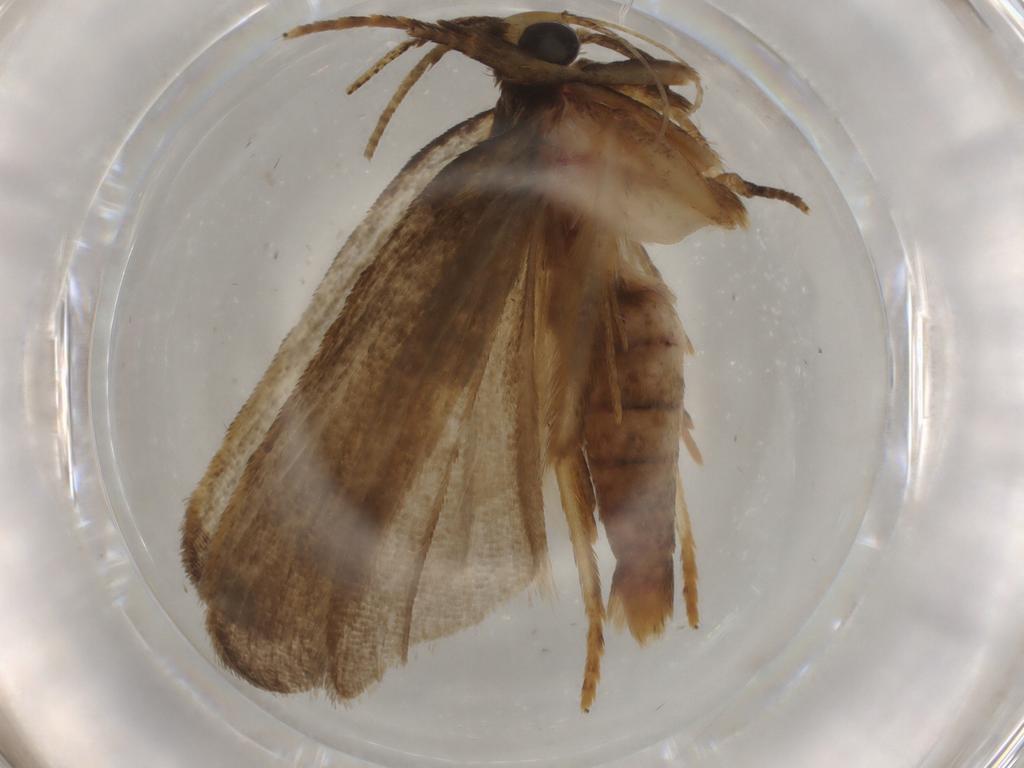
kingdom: Animalia
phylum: Arthropoda
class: Insecta
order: Lepidoptera
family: Autostichidae
